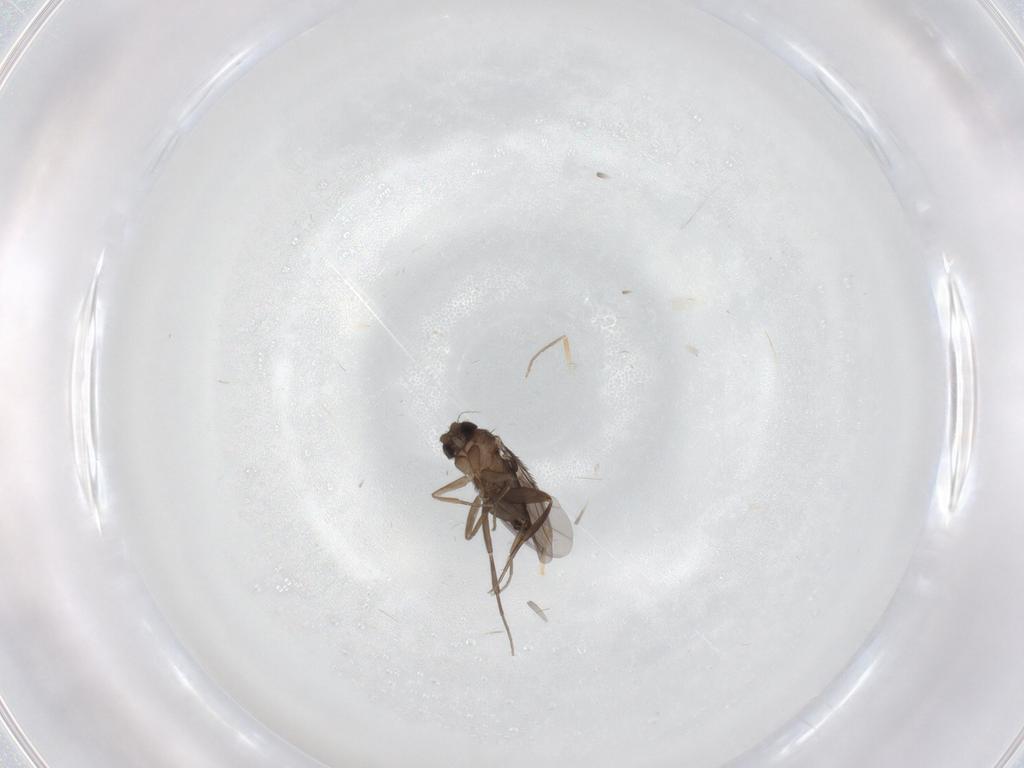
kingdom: Animalia
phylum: Arthropoda
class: Insecta
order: Diptera
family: Phoridae
